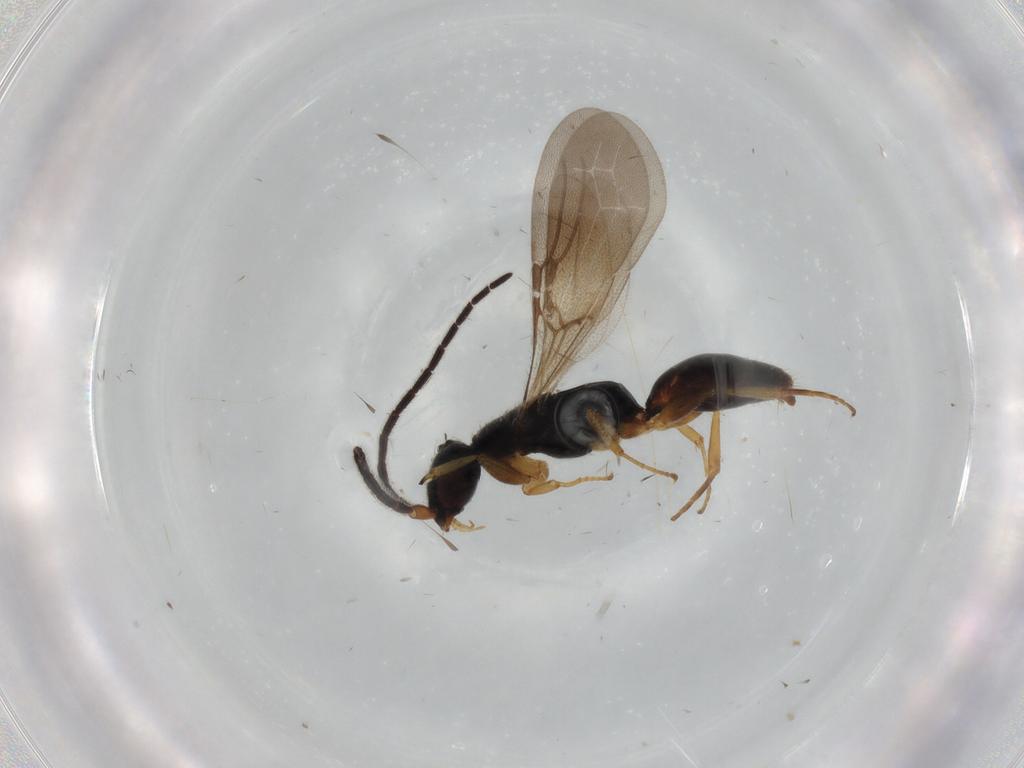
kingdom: Animalia
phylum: Arthropoda
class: Insecta
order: Hymenoptera
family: Bethylidae
